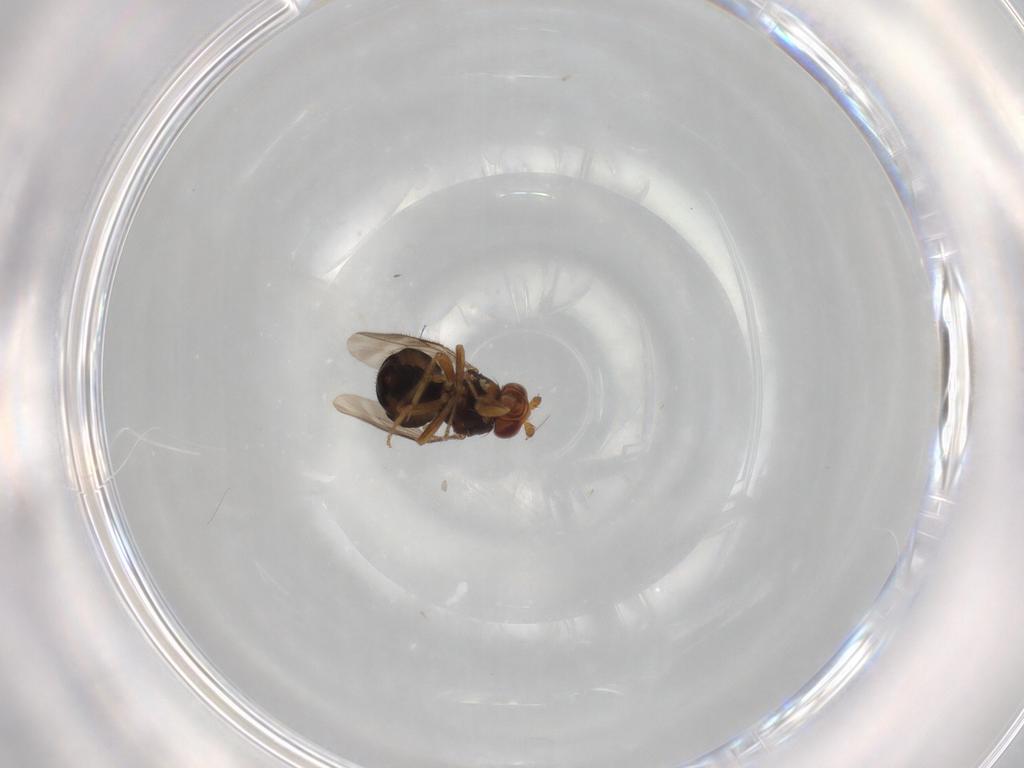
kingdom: Animalia
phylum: Arthropoda
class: Insecta
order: Diptera
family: Sphaeroceridae
